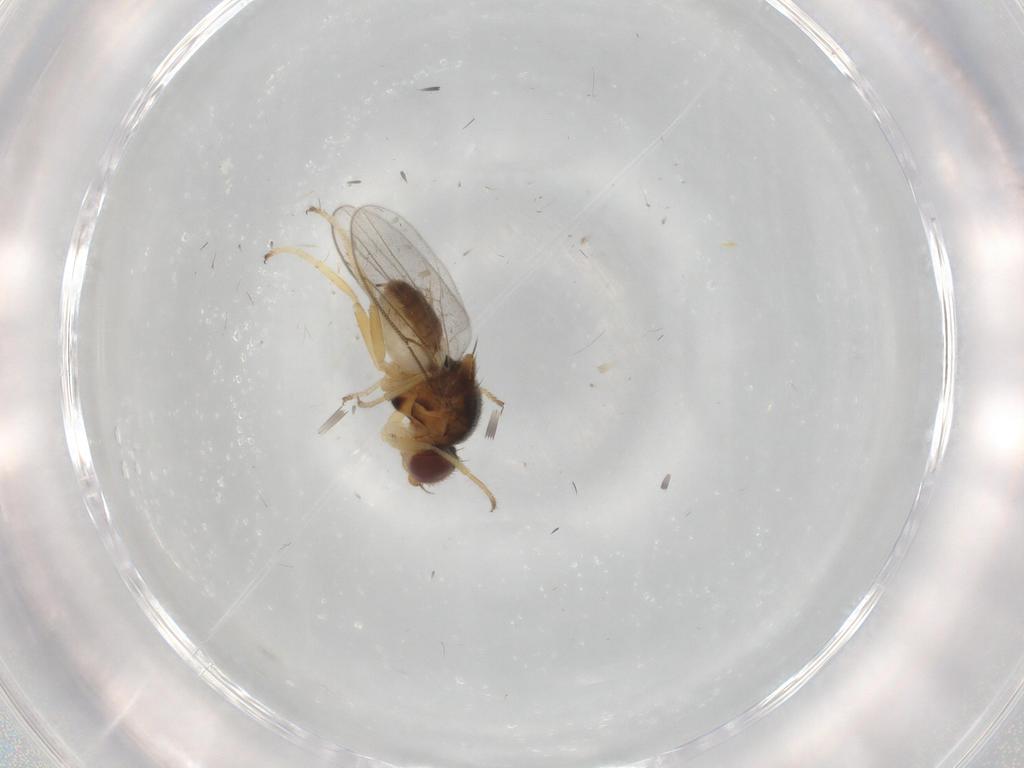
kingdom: Animalia
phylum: Arthropoda
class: Insecta
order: Diptera
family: Chloropidae
